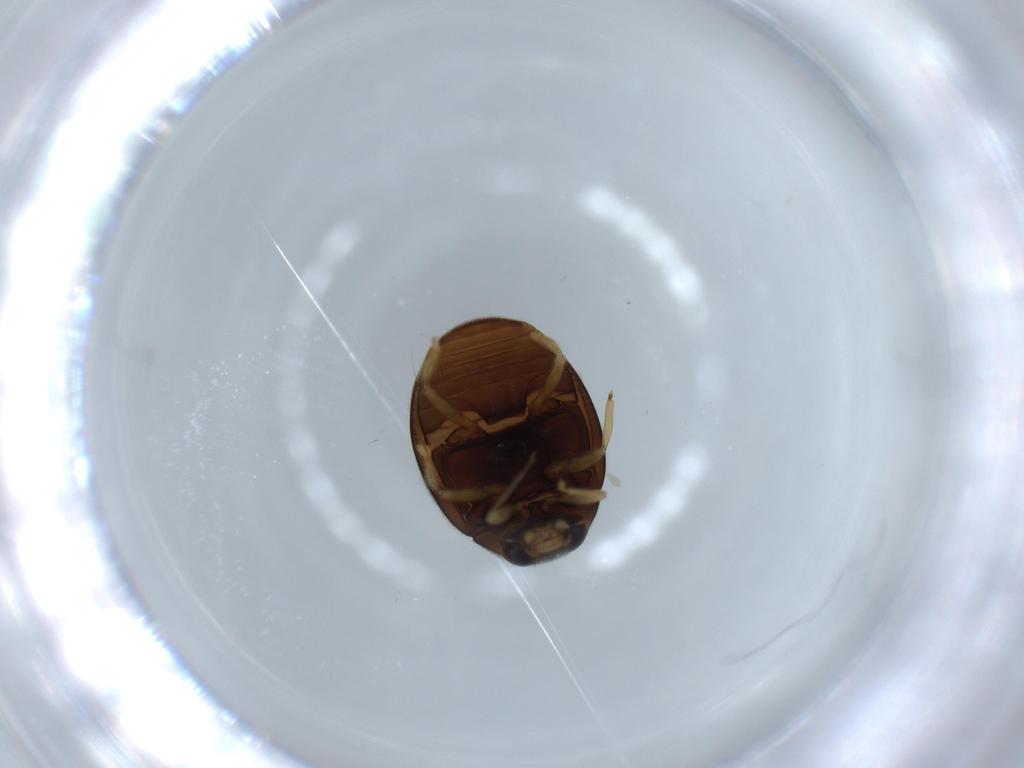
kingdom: Animalia
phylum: Arthropoda
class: Insecta
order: Coleoptera
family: Coccinellidae
